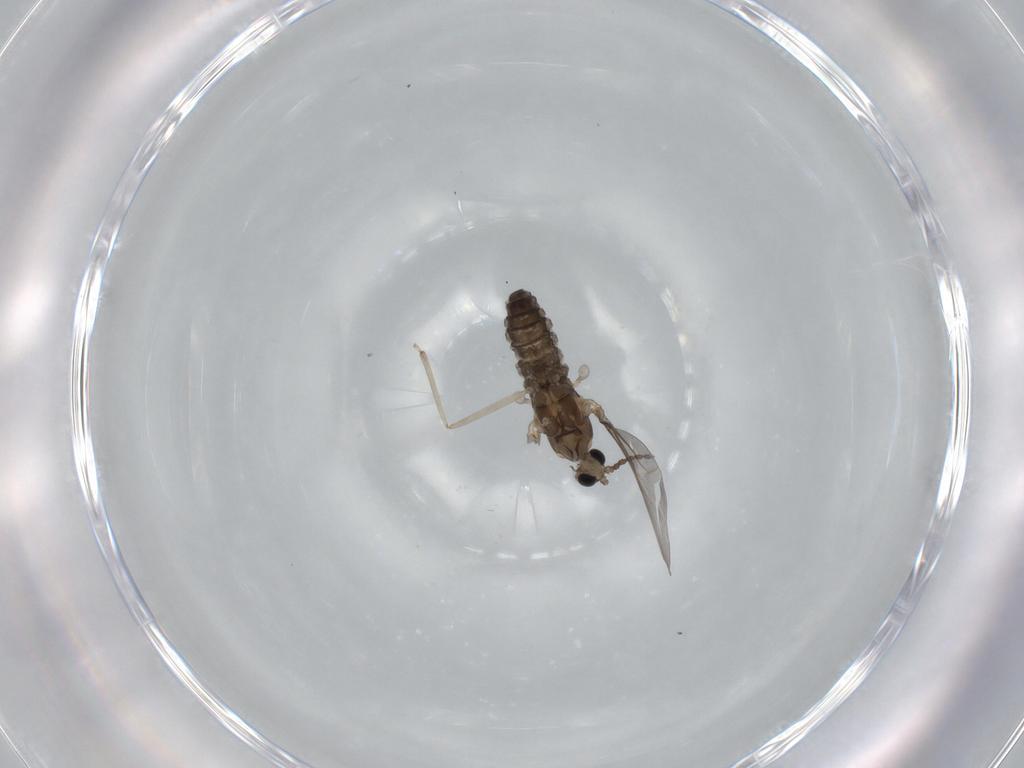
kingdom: Animalia
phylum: Arthropoda
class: Insecta
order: Diptera
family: Cecidomyiidae
